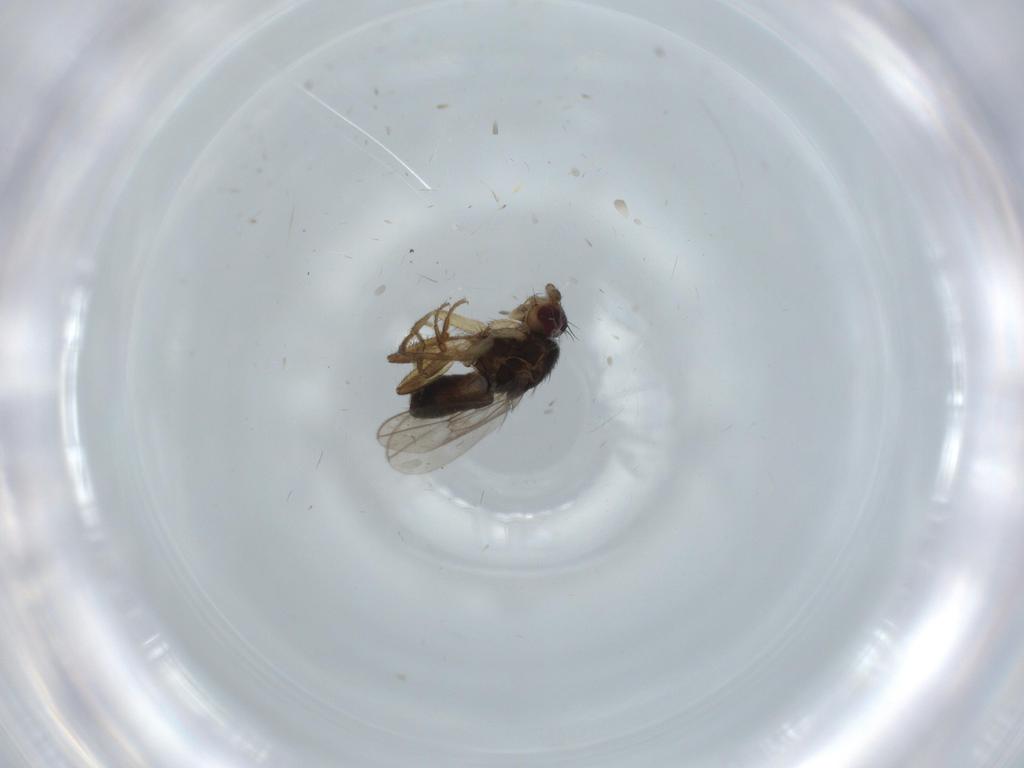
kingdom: Animalia
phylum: Arthropoda
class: Insecta
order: Diptera
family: Sphaeroceridae
